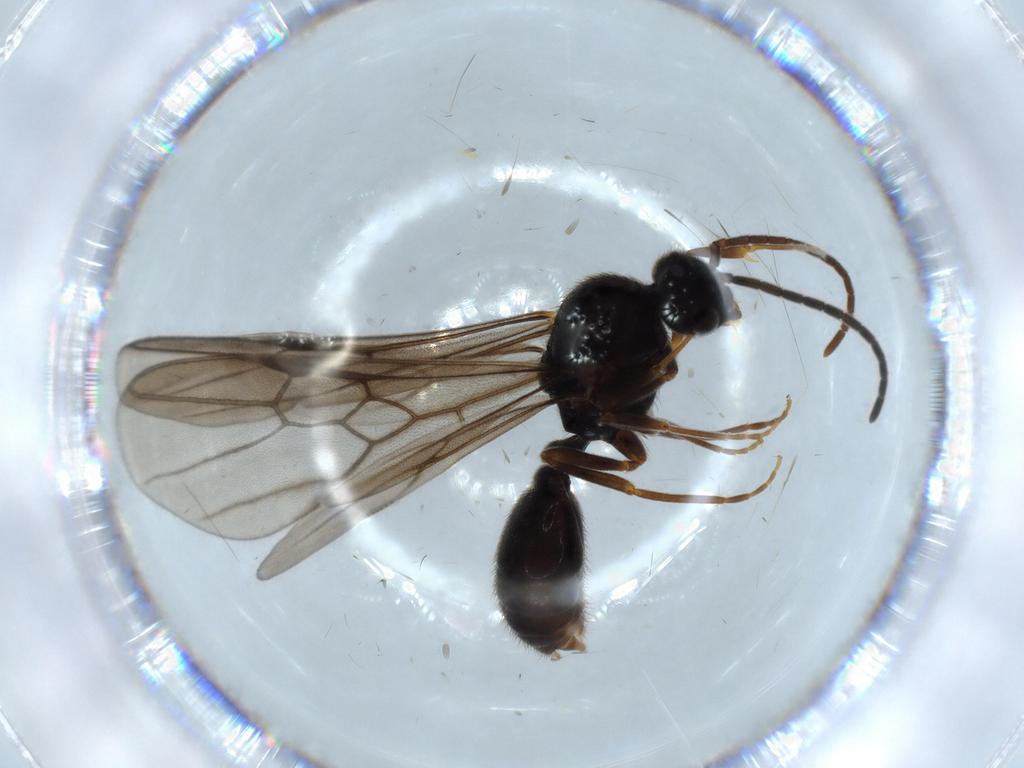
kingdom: Animalia
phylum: Arthropoda
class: Insecta
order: Hymenoptera
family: Formicidae
